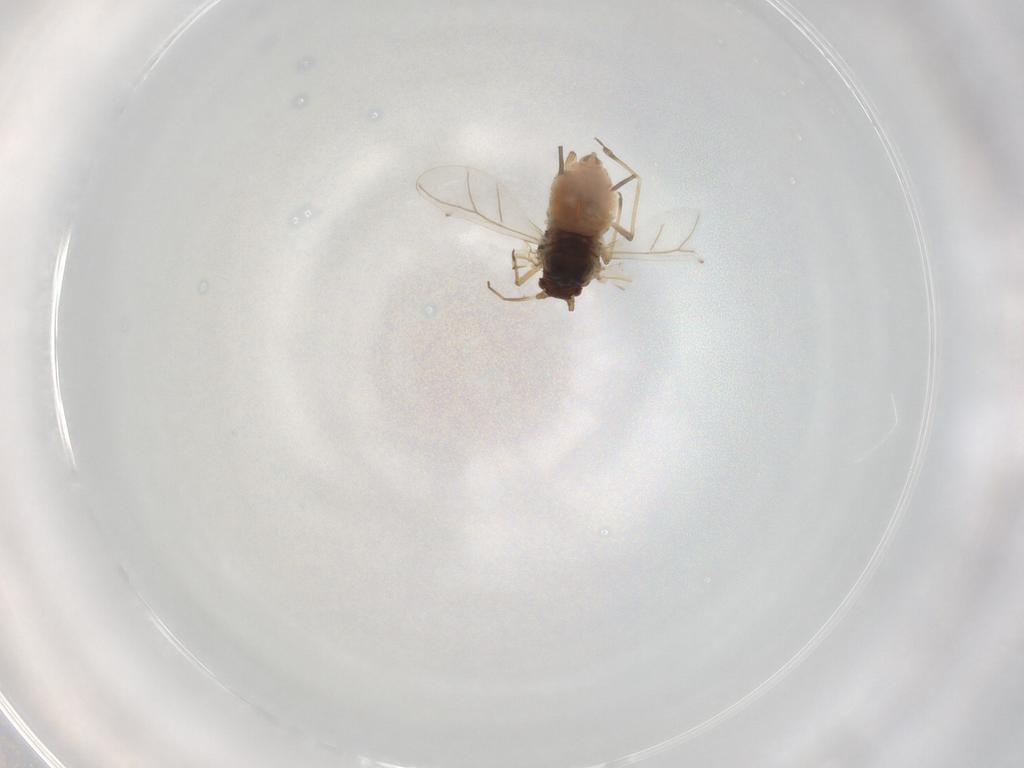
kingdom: Animalia
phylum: Arthropoda
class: Insecta
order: Hemiptera
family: Aphididae
